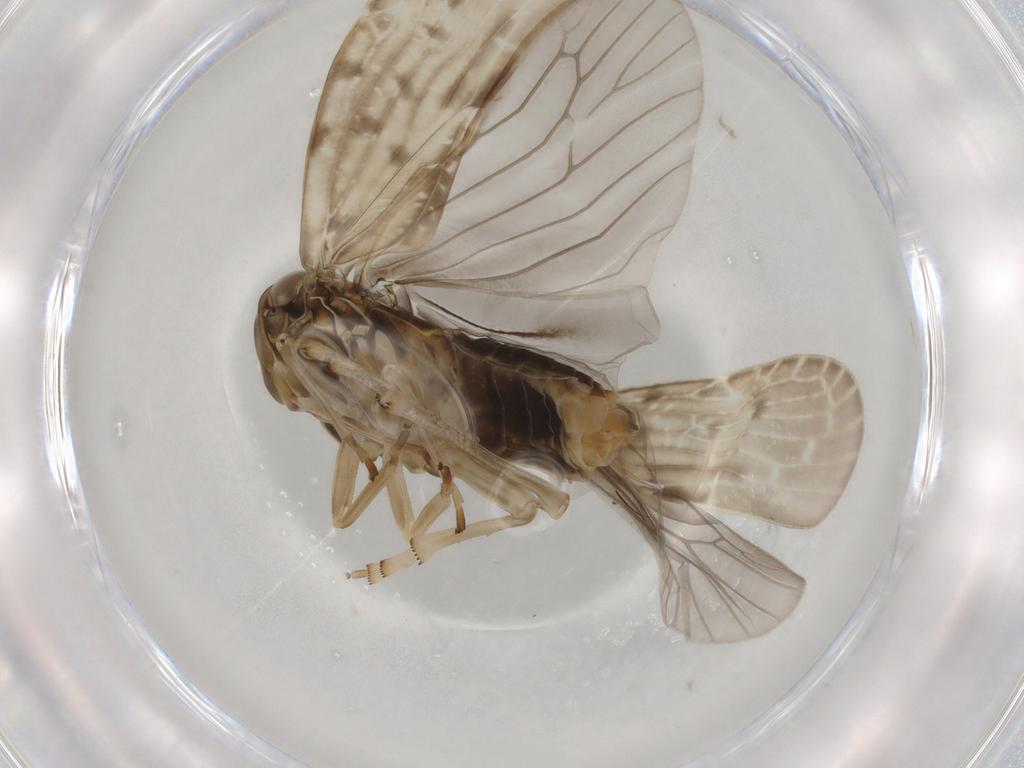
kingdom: Animalia
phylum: Arthropoda
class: Insecta
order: Hemiptera
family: Achilidae
